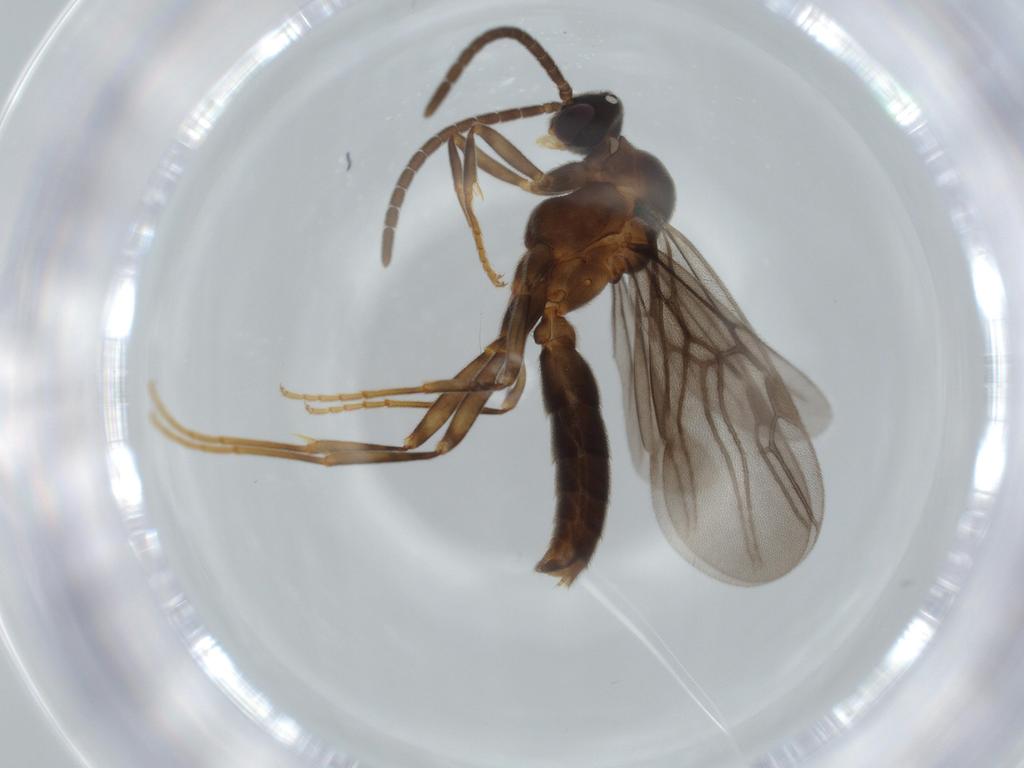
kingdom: Animalia
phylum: Arthropoda
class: Insecta
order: Hymenoptera
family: Formicidae
